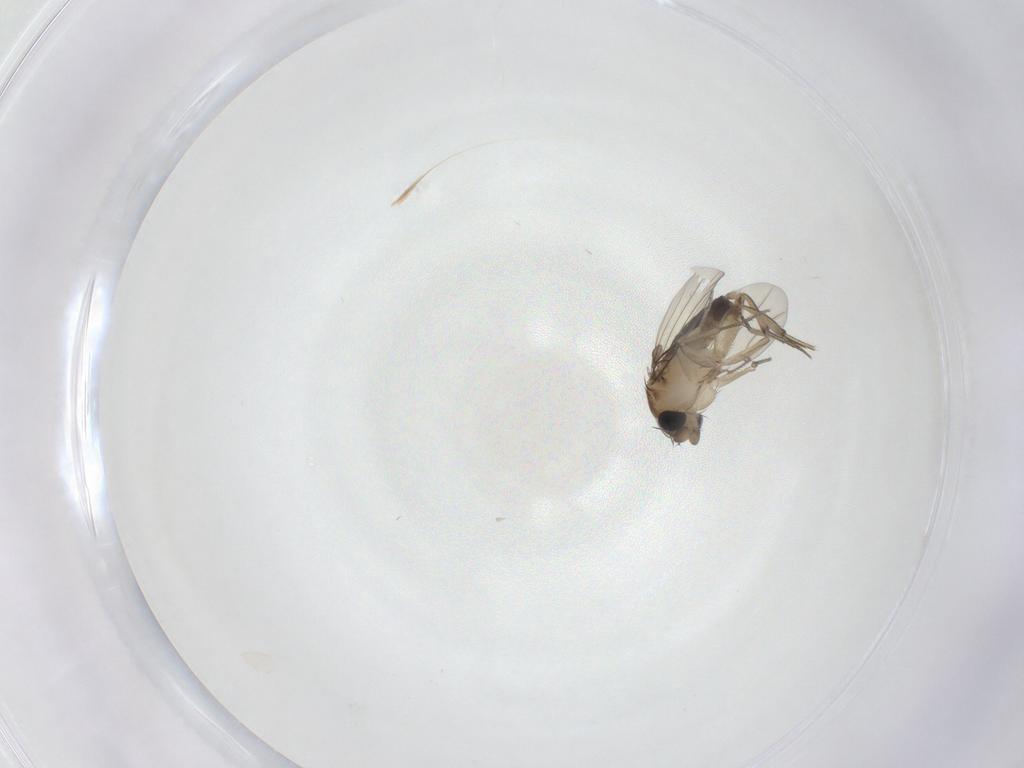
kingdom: Animalia
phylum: Arthropoda
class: Insecta
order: Diptera
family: Phoridae
